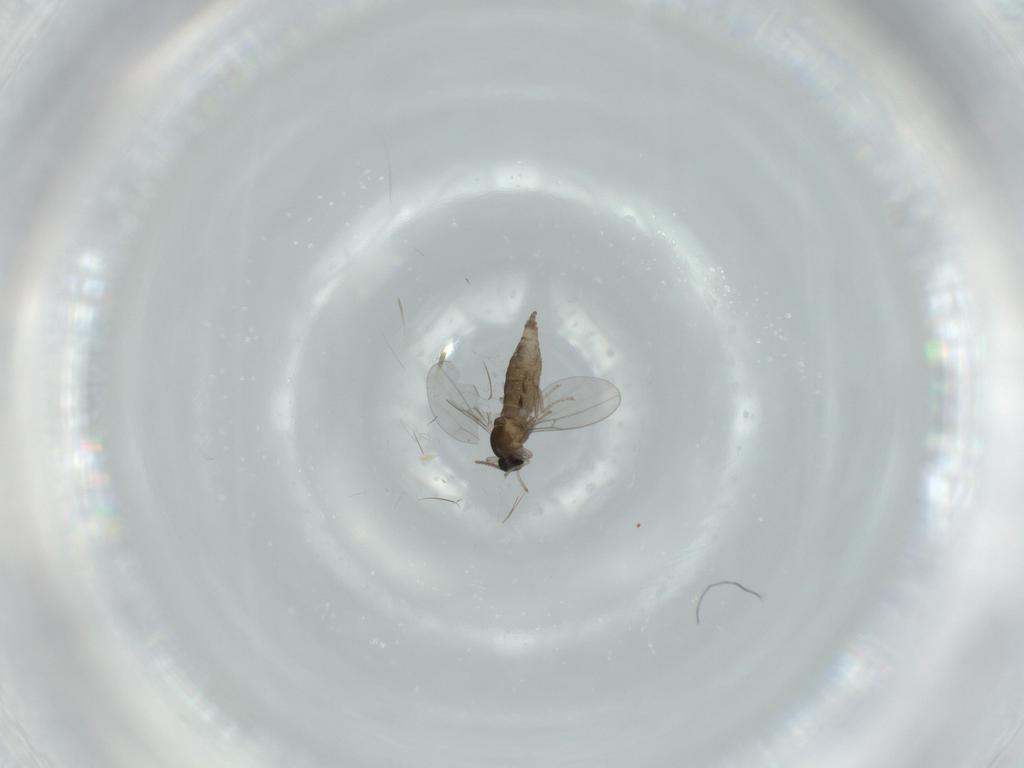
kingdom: Animalia
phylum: Arthropoda
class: Insecta
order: Diptera
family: Cecidomyiidae
